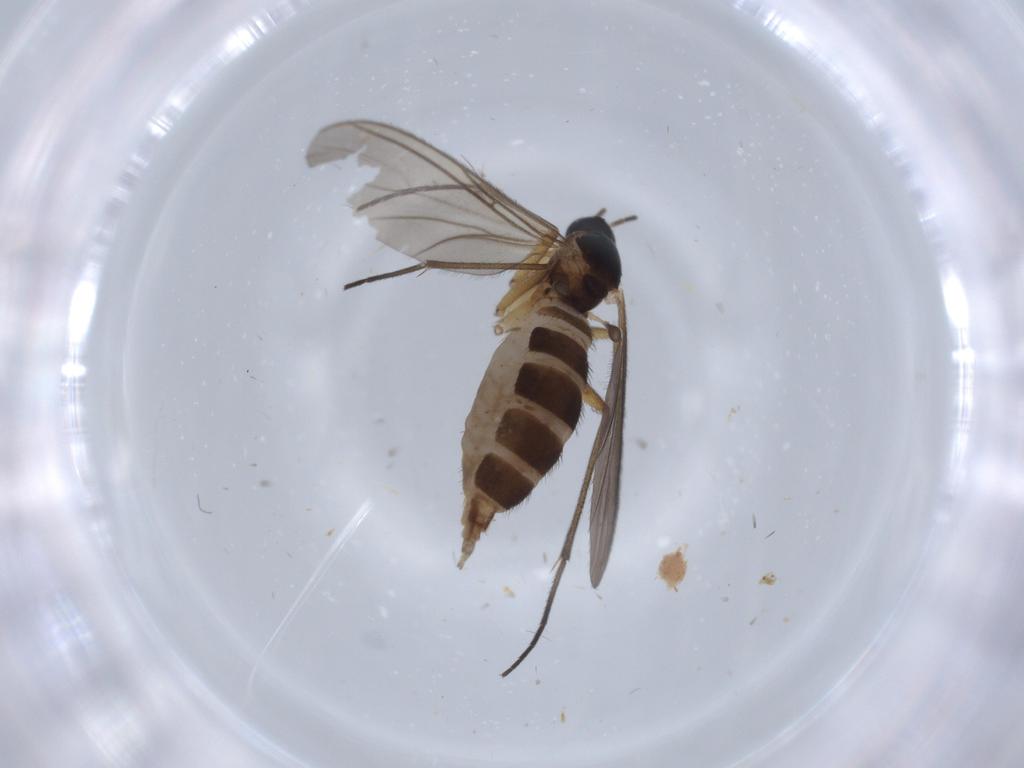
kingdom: Animalia
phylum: Arthropoda
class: Insecta
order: Diptera
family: Sciaridae
